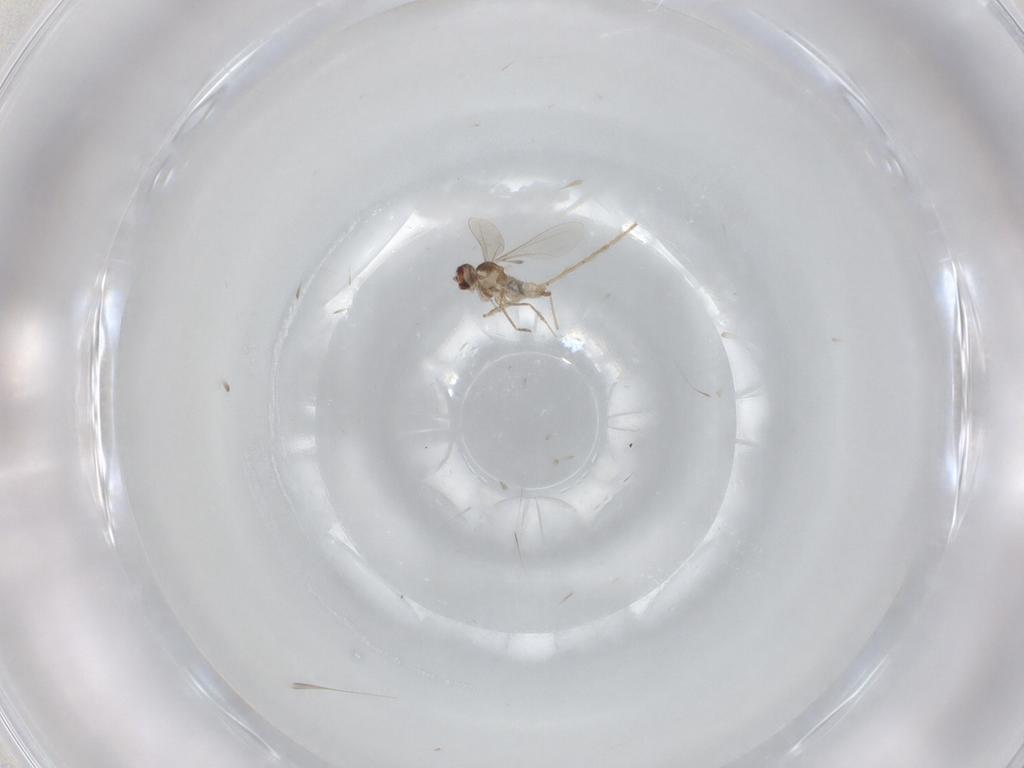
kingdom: Animalia
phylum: Arthropoda
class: Insecta
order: Diptera
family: Cecidomyiidae
